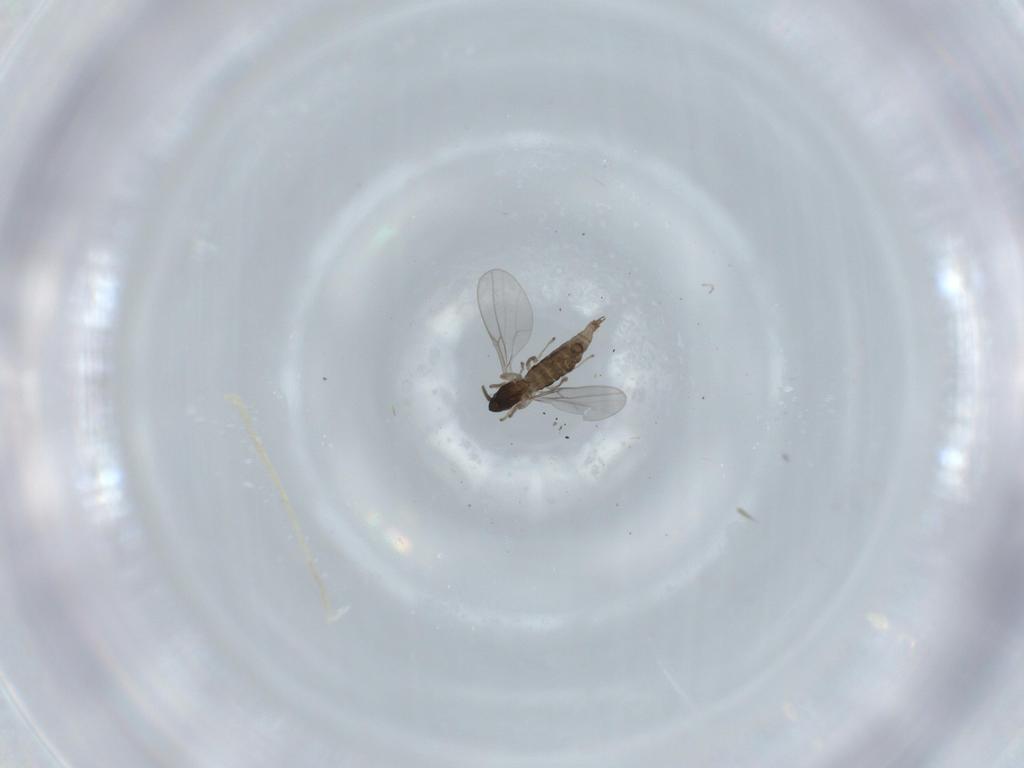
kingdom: Animalia
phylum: Arthropoda
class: Insecta
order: Diptera
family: Cecidomyiidae
